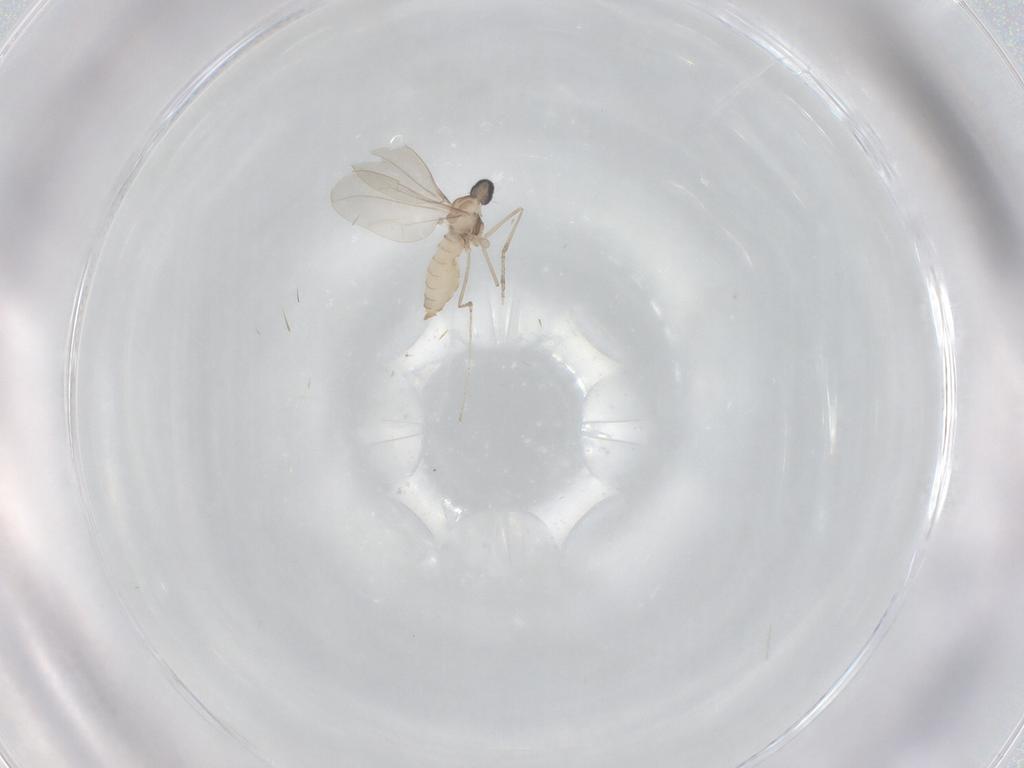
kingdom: Animalia
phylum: Arthropoda
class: Insecta
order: Diptera
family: Cecidomyiidae
